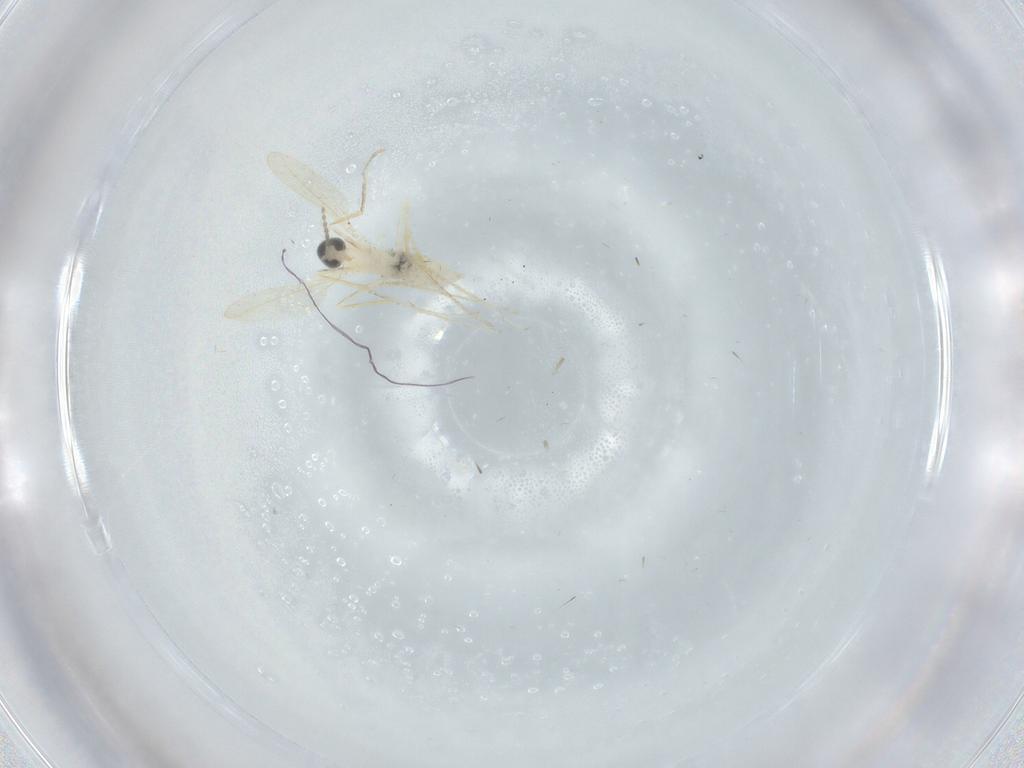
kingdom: Animalia
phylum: Arthropoda
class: Insecta
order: Diptera
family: Cecidomyiidae
